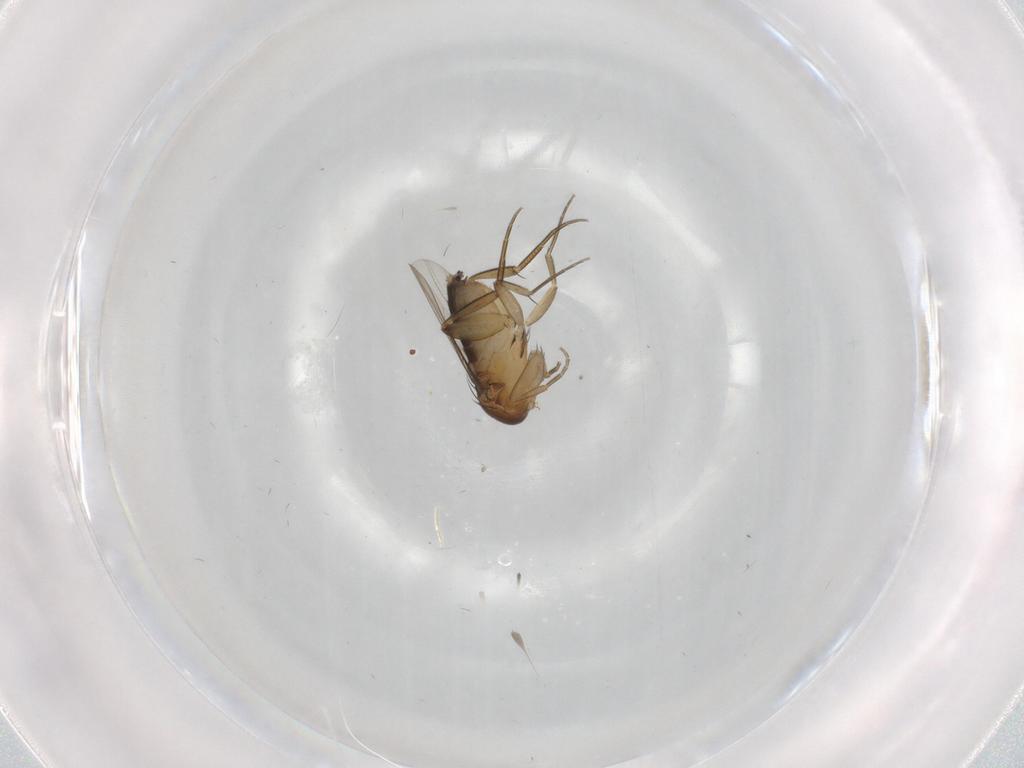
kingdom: Animalia
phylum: Arthropoda
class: Insecta
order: Diptera
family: Phoridae
